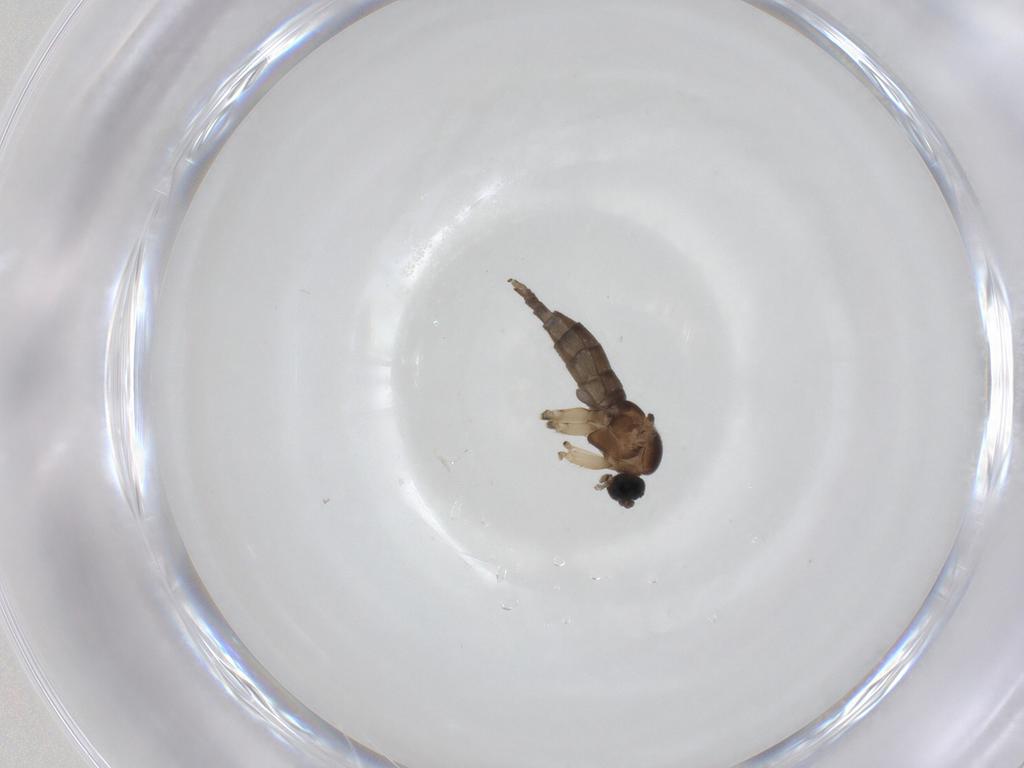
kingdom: Animalia
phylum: Arthropoda
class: Insecta
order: Diptera
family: Sciaridae
